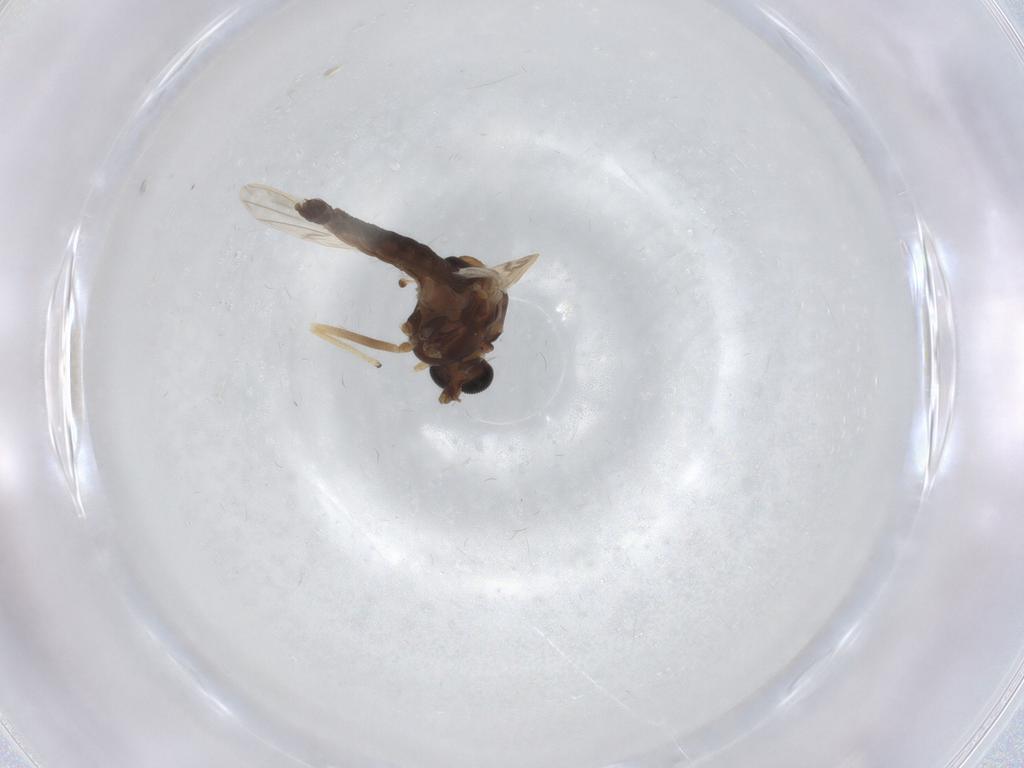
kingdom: Animalia
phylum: Arthropoda
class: Insecta
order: Diptera
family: Chironomidae
